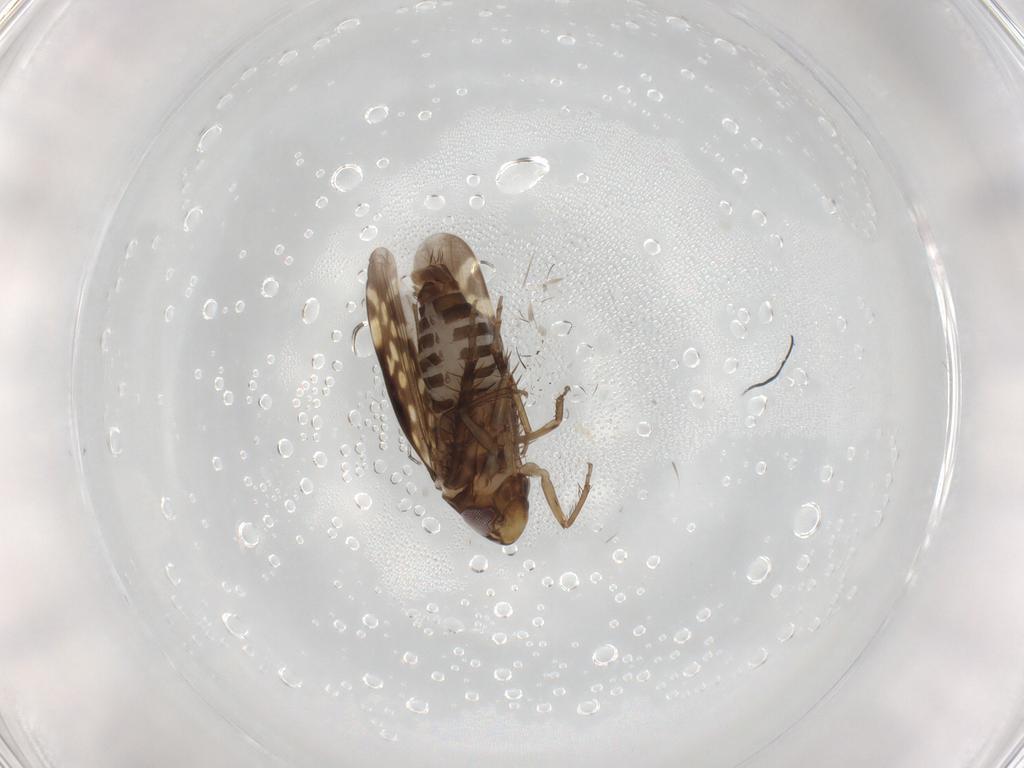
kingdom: Animalia
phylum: Arthropoda
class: Insecta
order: Hemiptera
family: Cicadellidae
